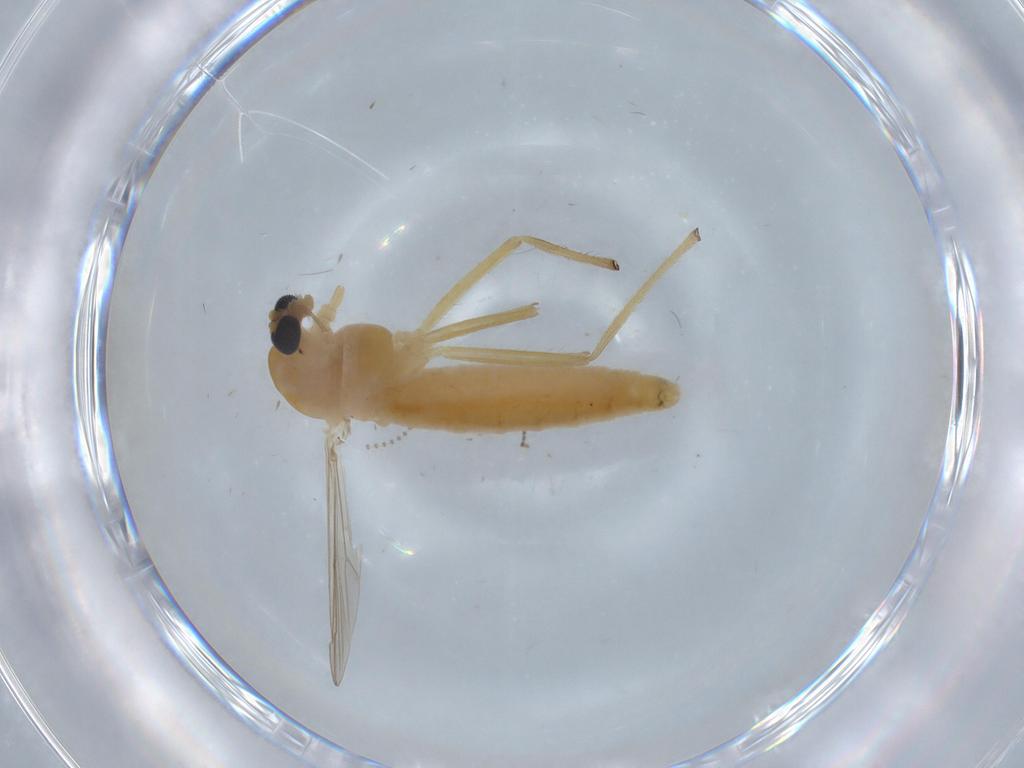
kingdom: Animalia
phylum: Arthropoda
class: Insecta
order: Diptera
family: Chironomidae
